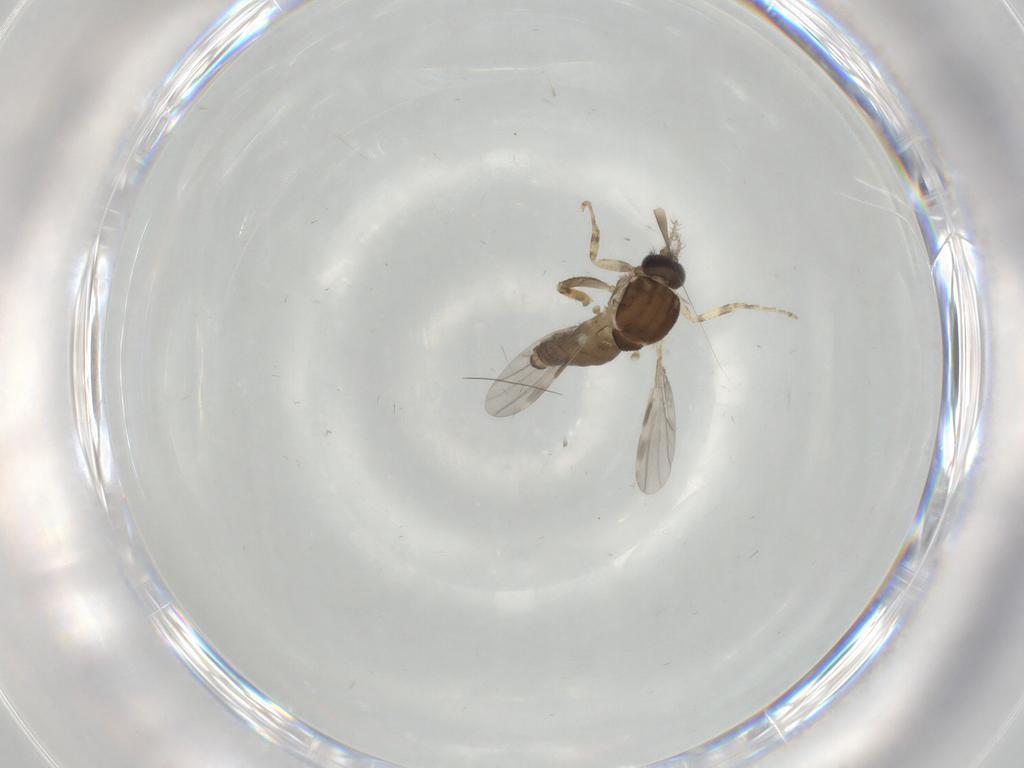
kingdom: Animalia
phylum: Arthropoda
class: Insecta
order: Diptera
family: Ceratopogonidae
